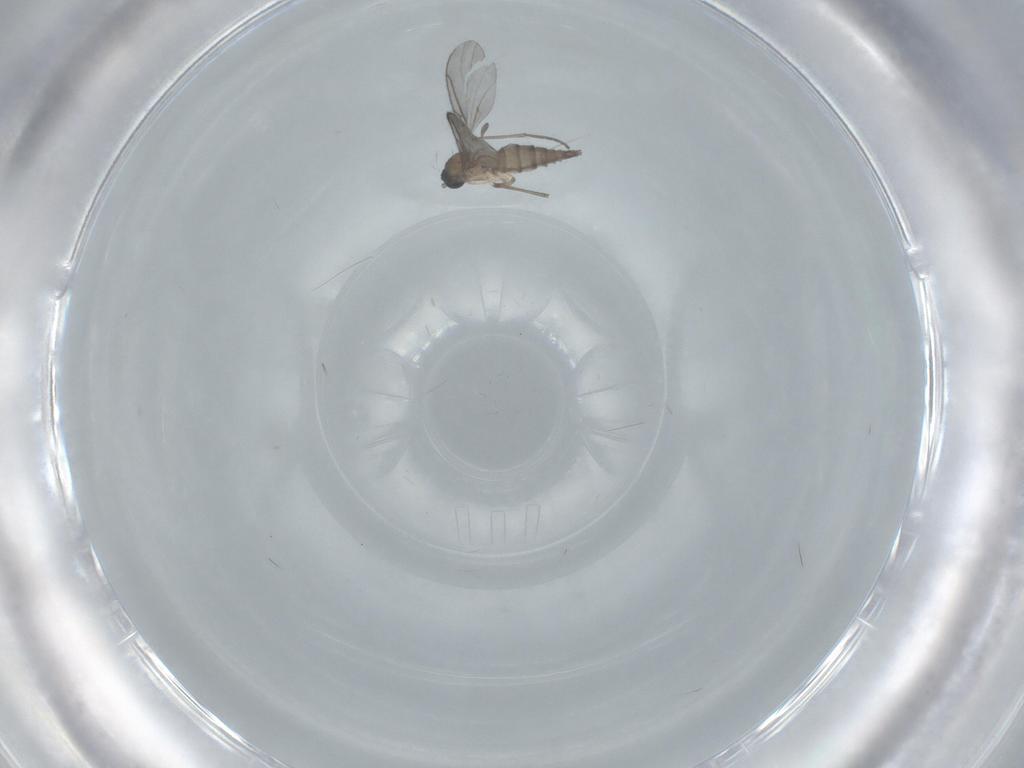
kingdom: Animalia
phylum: Arthropoda
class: Insecta
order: Diptera
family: Sciaridae
